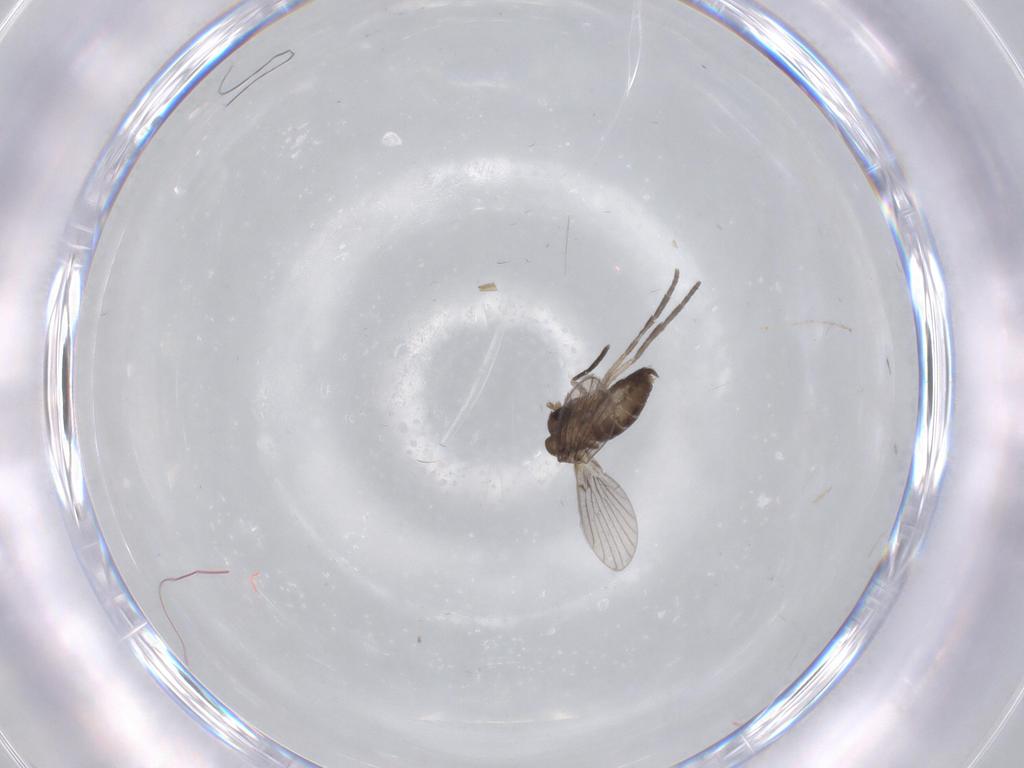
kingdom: Animalia
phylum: Arthropoda
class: Insecta
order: Diptera
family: Cecidomyiidae
